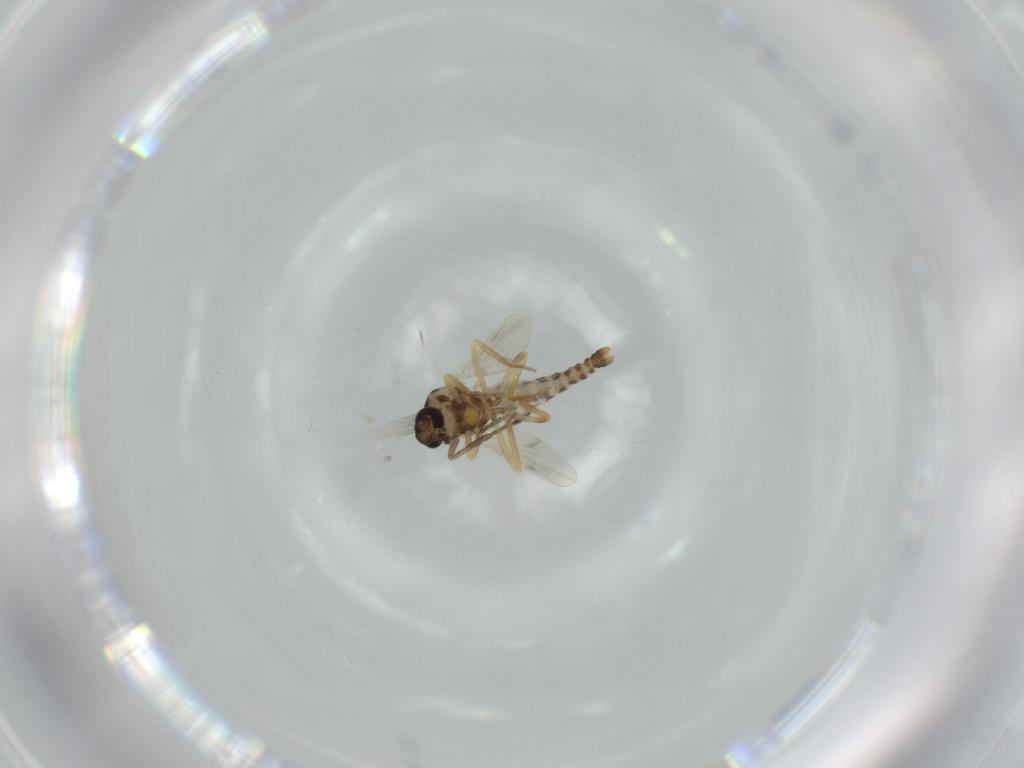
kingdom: Animalia
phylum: Arthropoda
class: Insecta
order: Diptera
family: Ceratopogonidae
